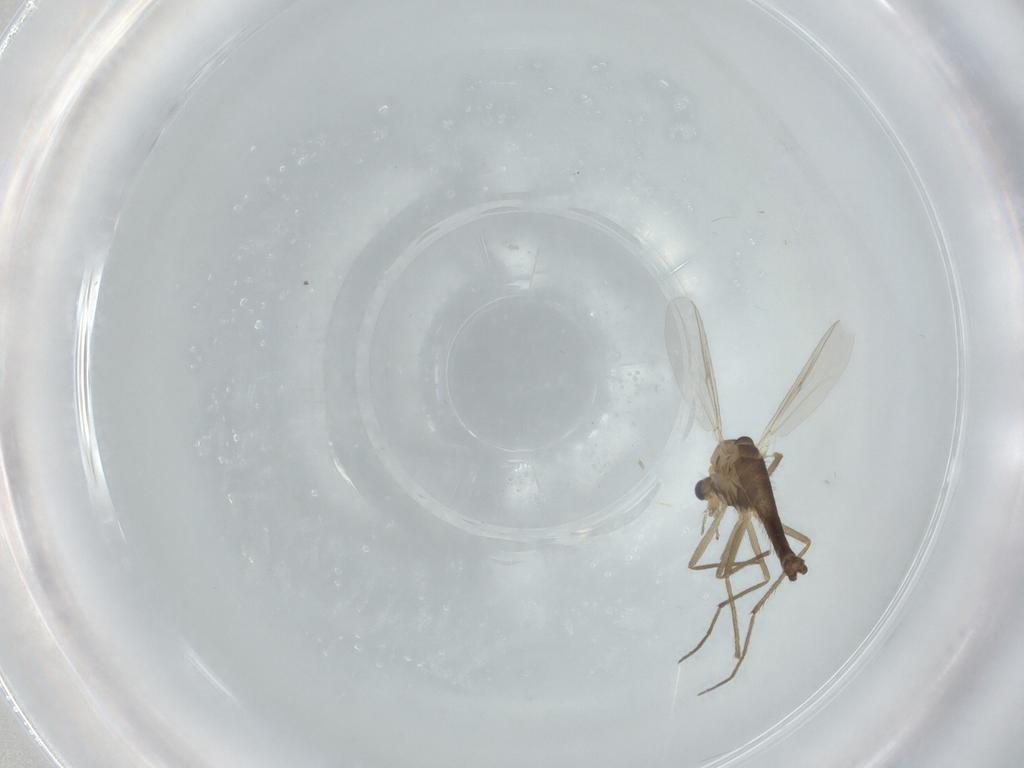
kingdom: Animalia
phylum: Arthropoda
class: Insecta
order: Diptera
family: Chironomidae
